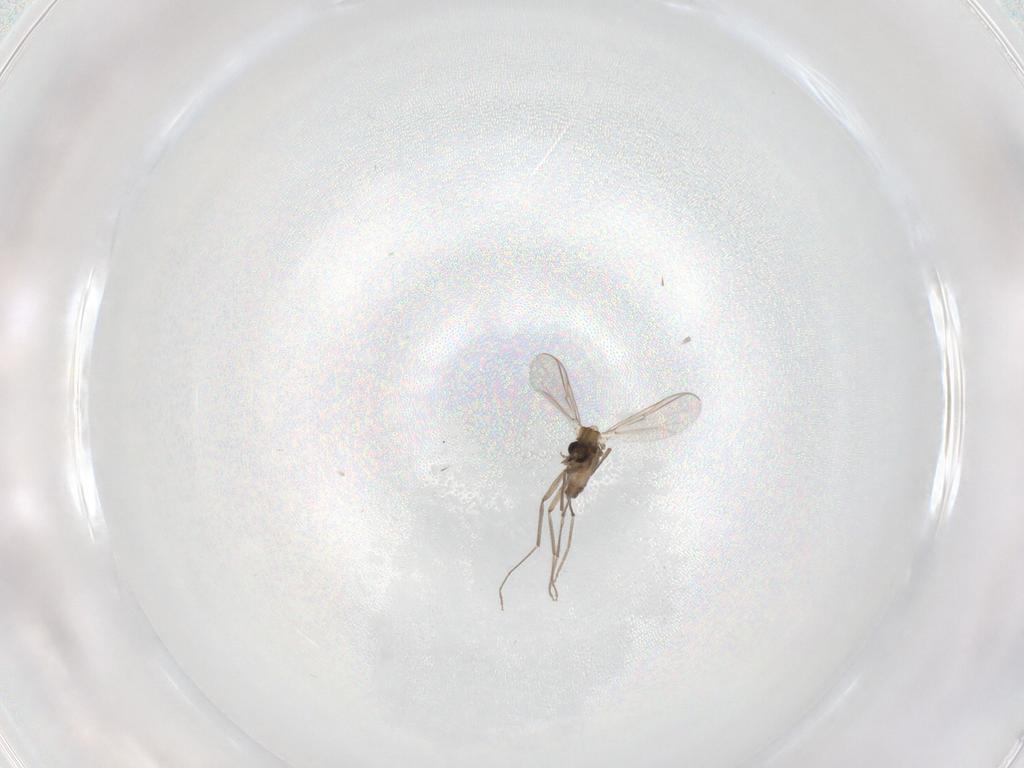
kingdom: Animalia
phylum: Arthropoda
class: Insecta
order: Diptera
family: Chironomidae
